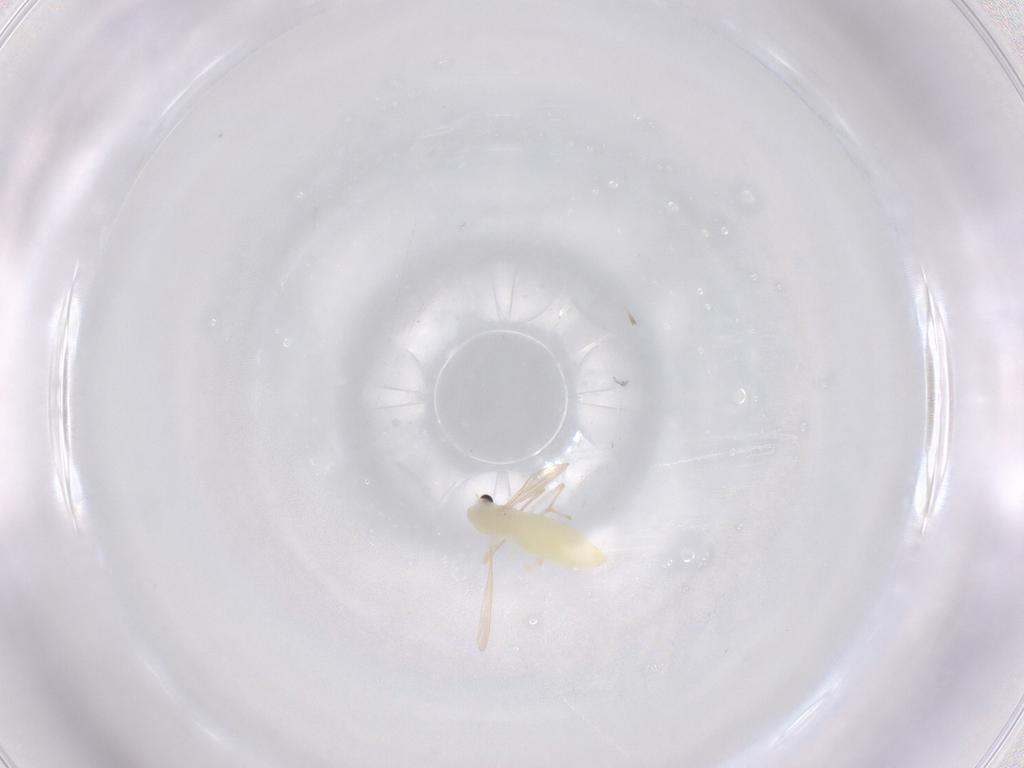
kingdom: Animalia
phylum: Arthropoda
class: Insecta
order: Diptera
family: Chironomidae
